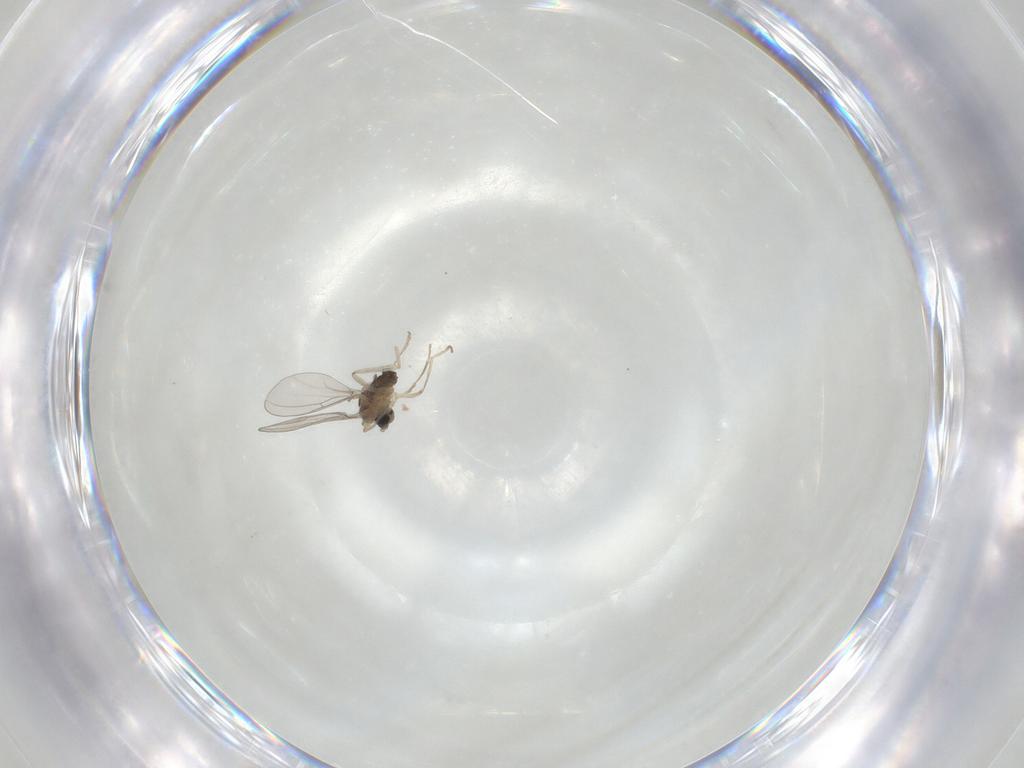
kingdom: Animalia
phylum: Arthropoda
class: Insecta
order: Diptera
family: Cecidomyiidae
